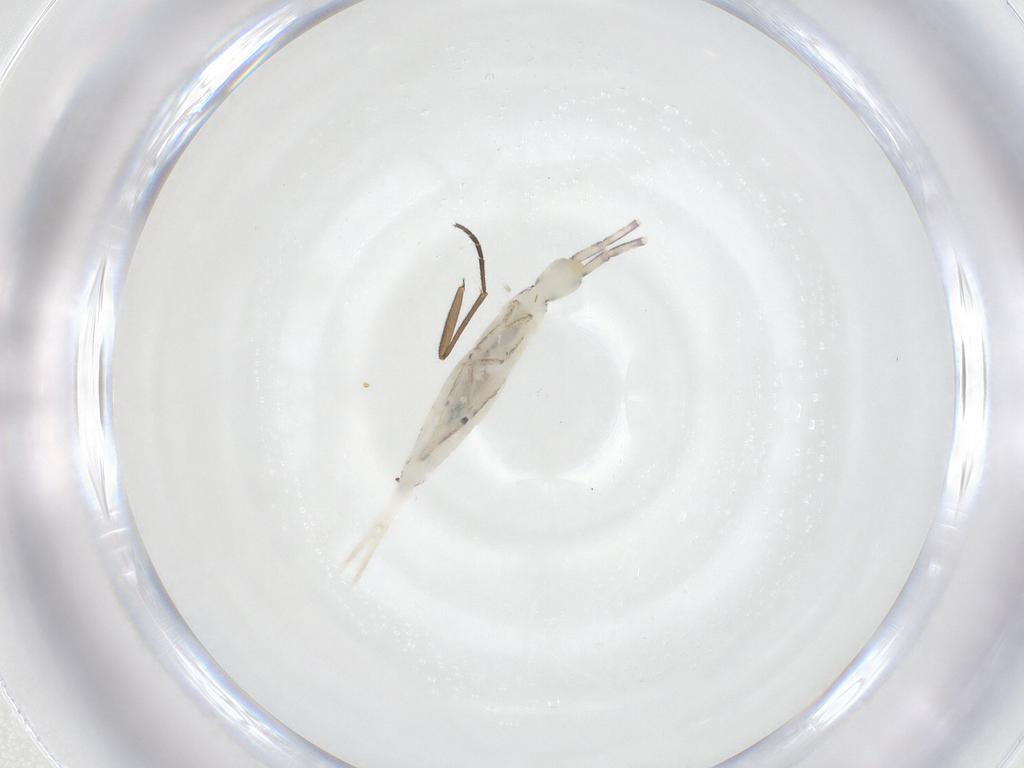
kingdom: Animalia
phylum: Arthropoda
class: Collembola
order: Entomobryomorpha
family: Entomobryidae
